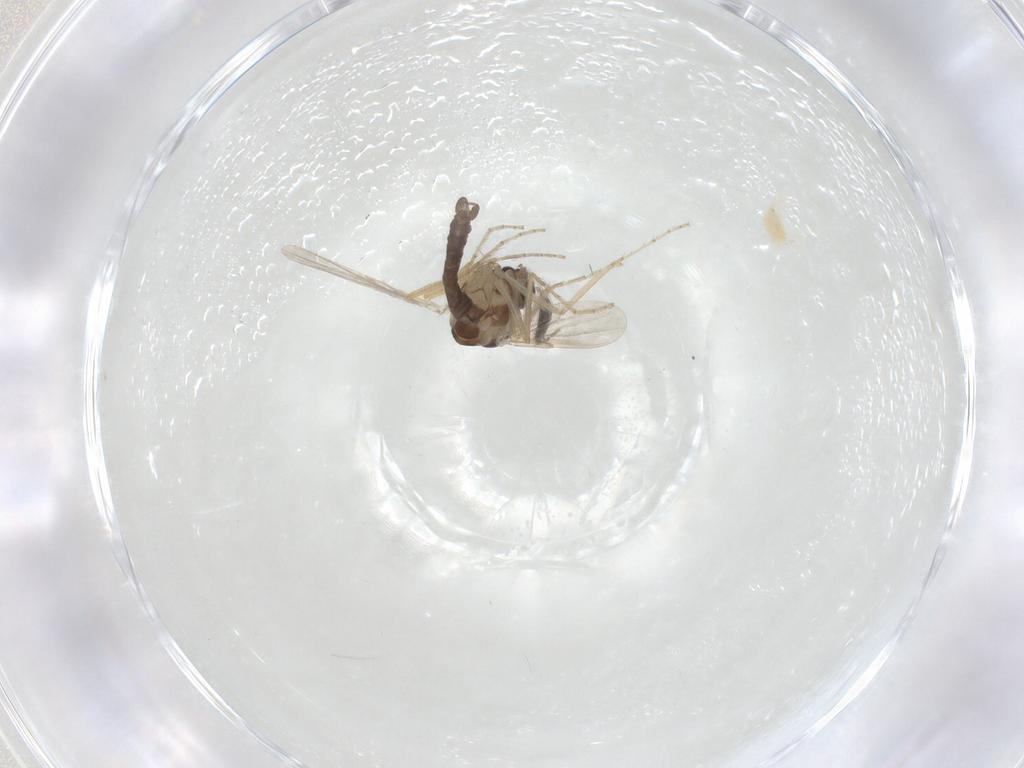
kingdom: Animalia
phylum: Arthropoda
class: Insecta
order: Diptera
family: Ceratopogonidae
